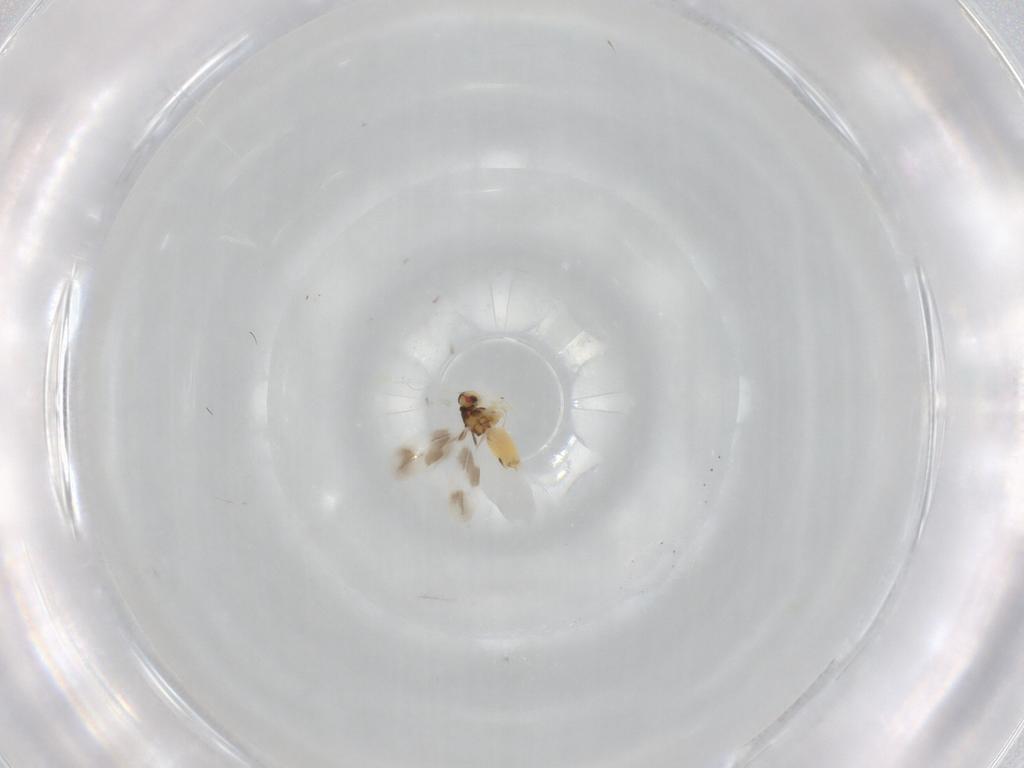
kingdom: Animalia
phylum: Arthropoda
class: Insecta
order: Hemiptera
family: Aleyrodidae
